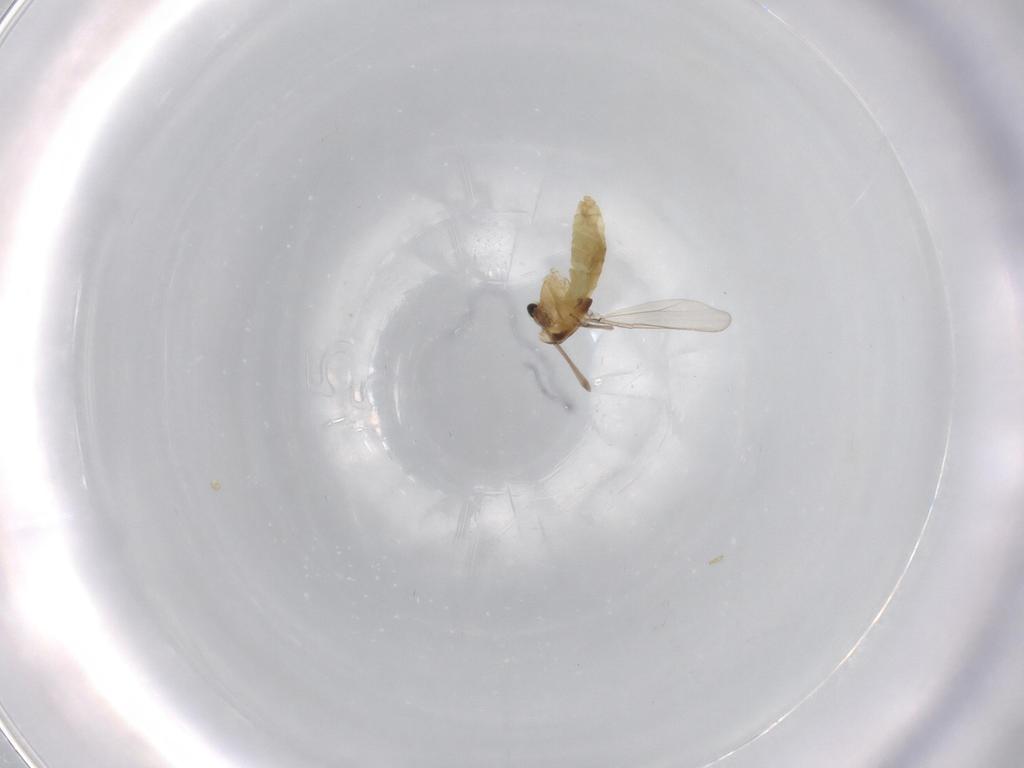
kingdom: Animalia
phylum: Arthropoda
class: Insecta
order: Diptera
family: Chironomidae
